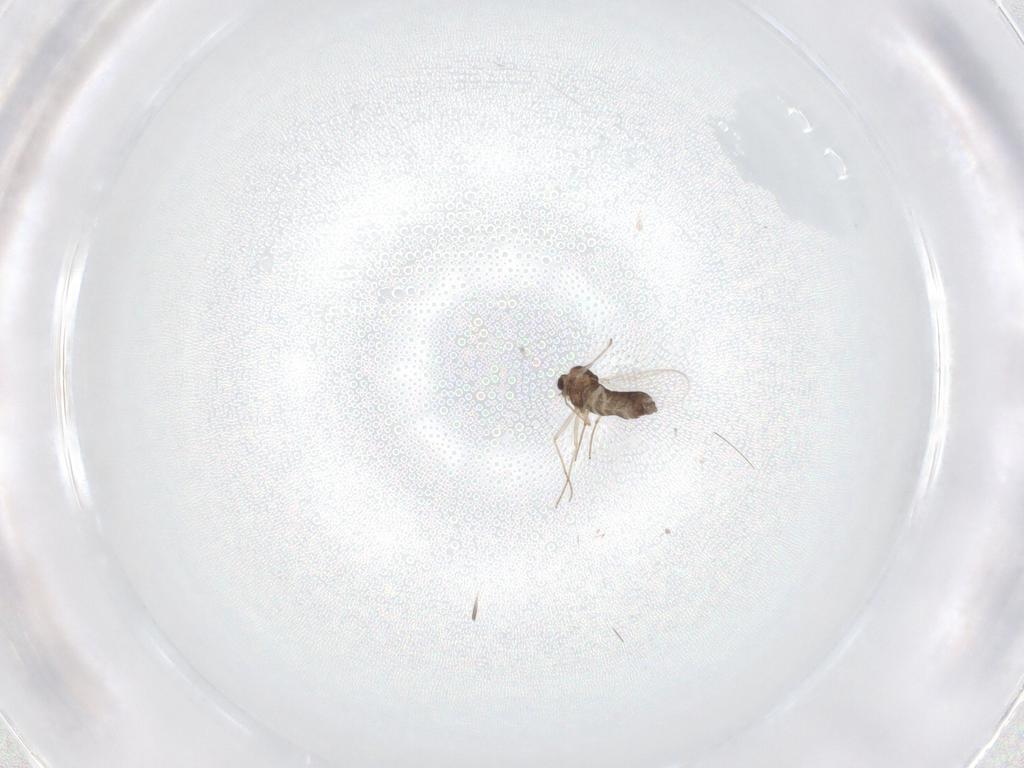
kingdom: Animalia
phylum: Arthropoda
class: Insecta
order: Diptera
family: Chironomidae
